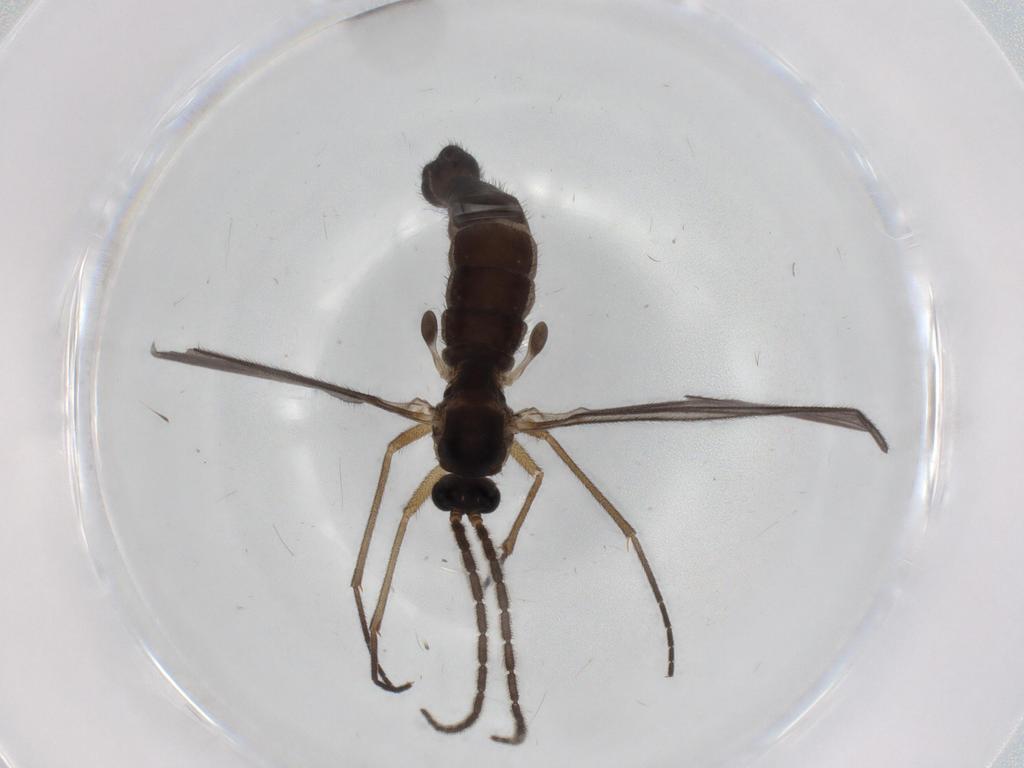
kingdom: Animalia
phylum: Arthropoda
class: Insecta
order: Diptera
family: Sciaridae
